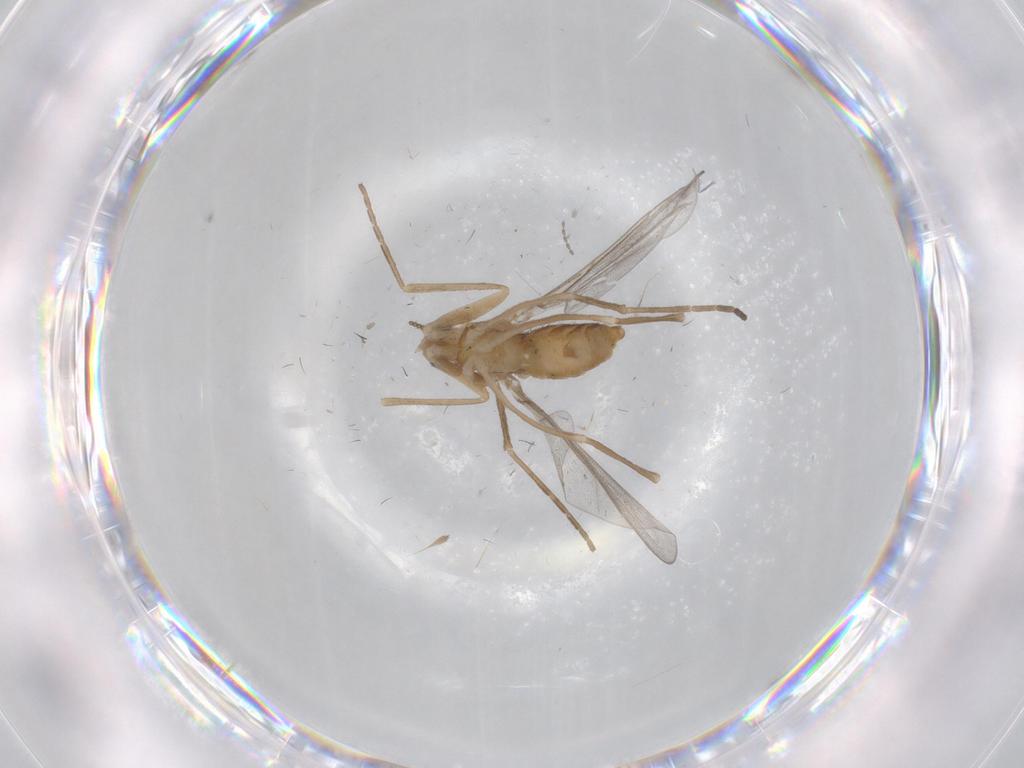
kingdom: Animalia
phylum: Arthropoda
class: Insecta
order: Diptera
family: Cecidomyiidae
